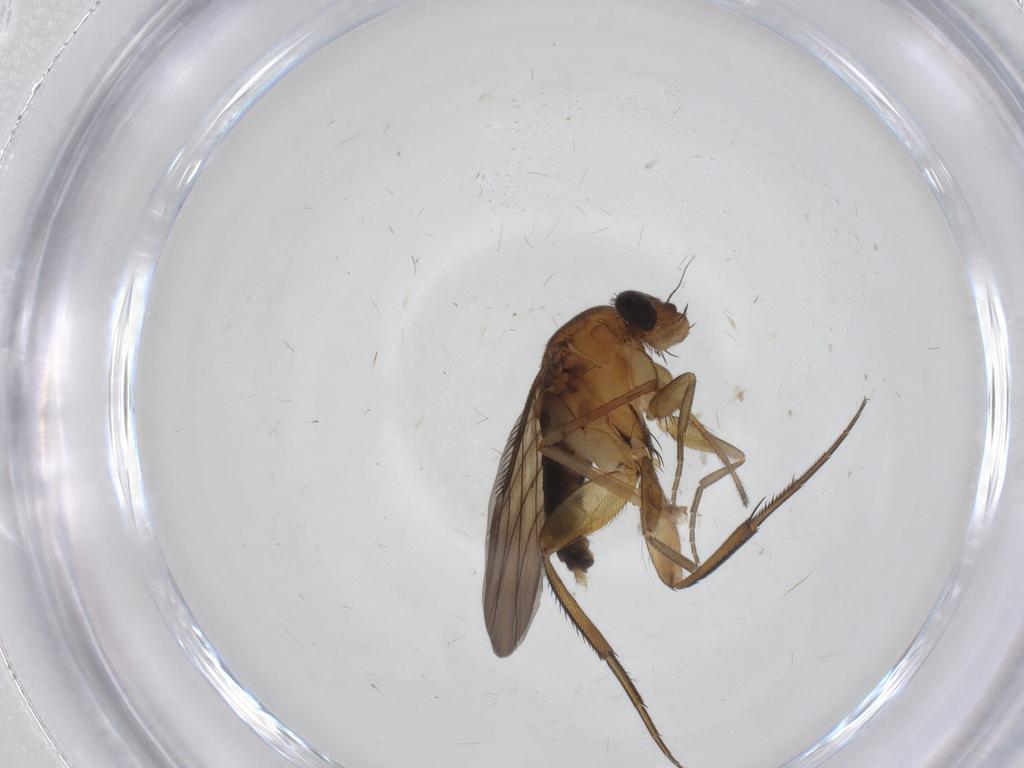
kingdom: Animalia
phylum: Arthropoda
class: Insecta
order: Diptera
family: Phoridae
